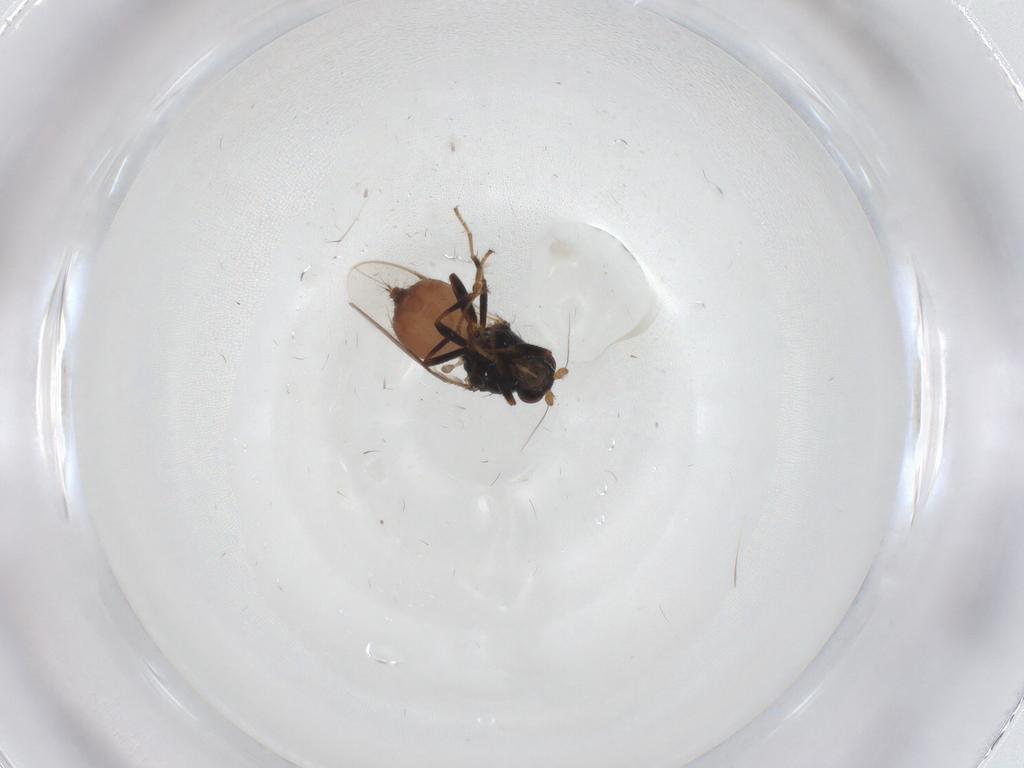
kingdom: Animalia
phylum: Arthropoda
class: Insecta
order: Diptera
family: Sphaeroceridae
